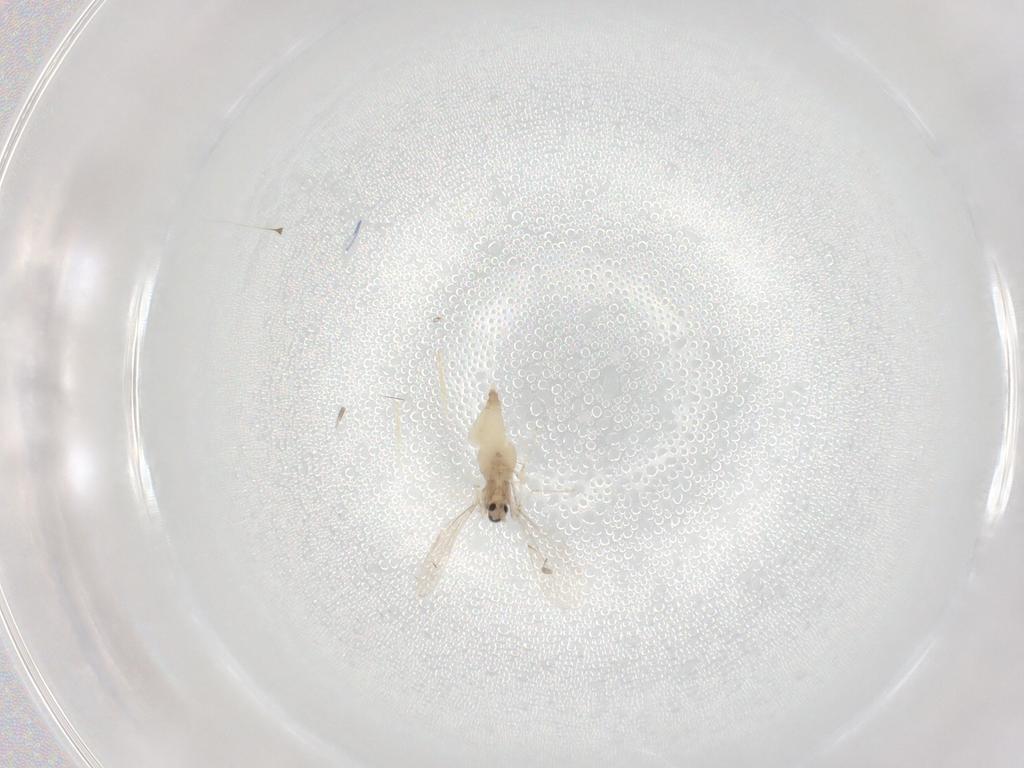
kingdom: Animalia
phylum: Arthropoda
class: Insecta
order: Diptera
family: Cecidomyiidae
